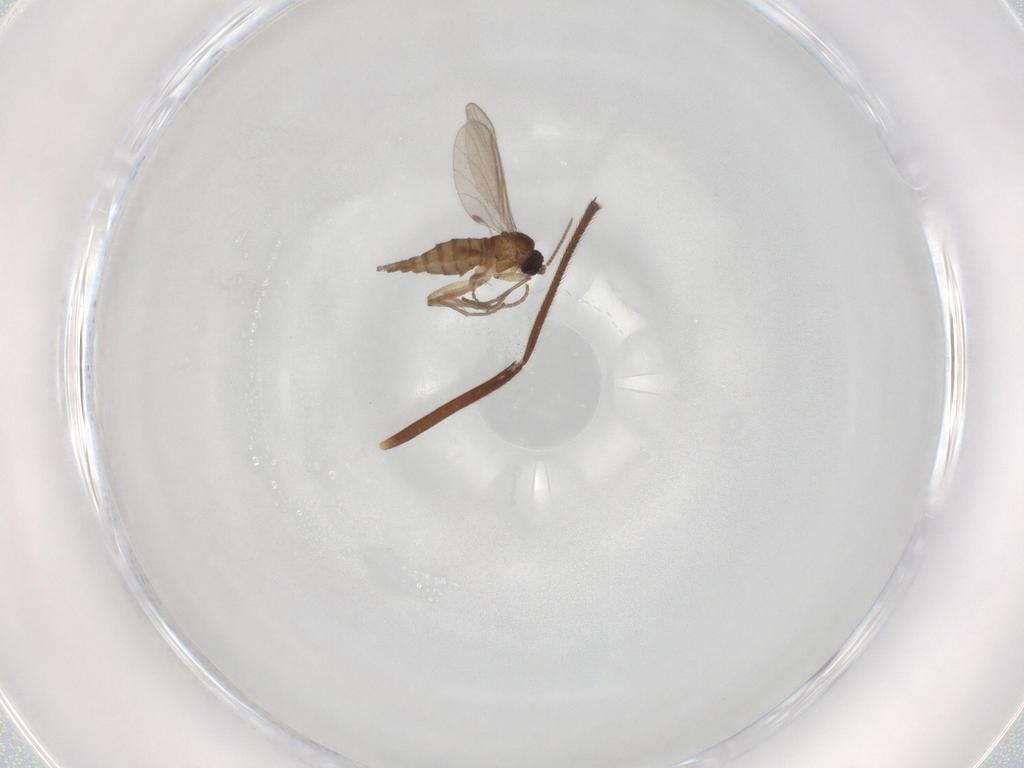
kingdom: Animalia
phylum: Arthropoda
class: Insecta
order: Diptera
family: Sciaridae
